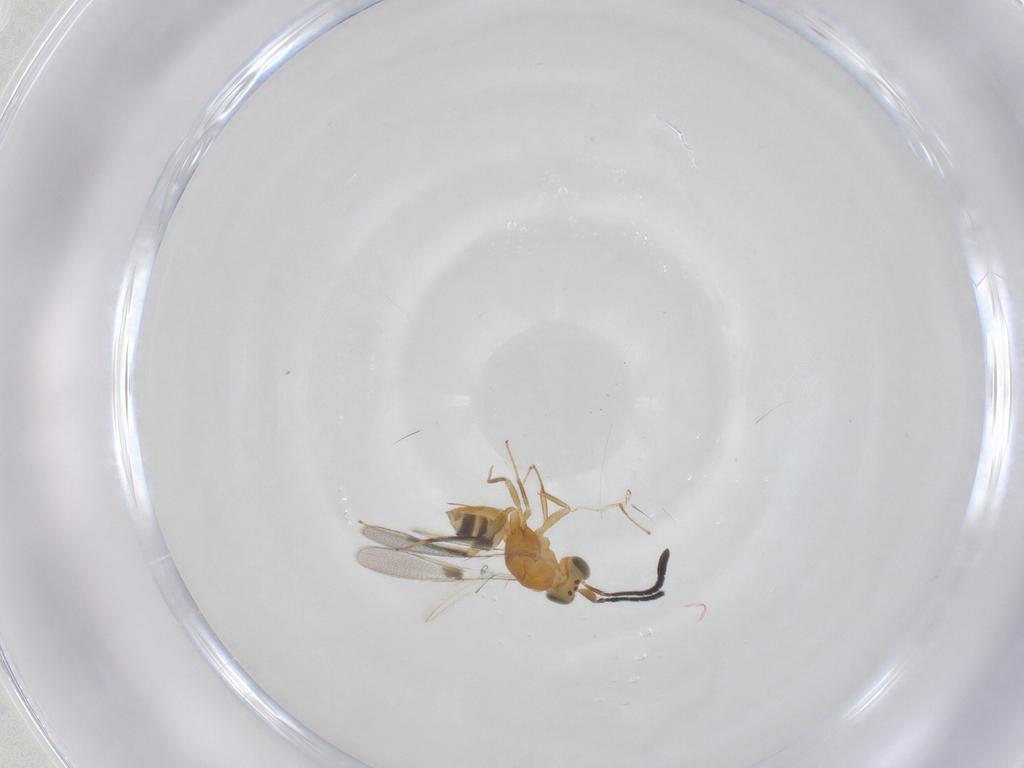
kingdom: Animalia
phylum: Arthropoda
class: Insecta
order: Hymenoptera
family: Mymaridae
